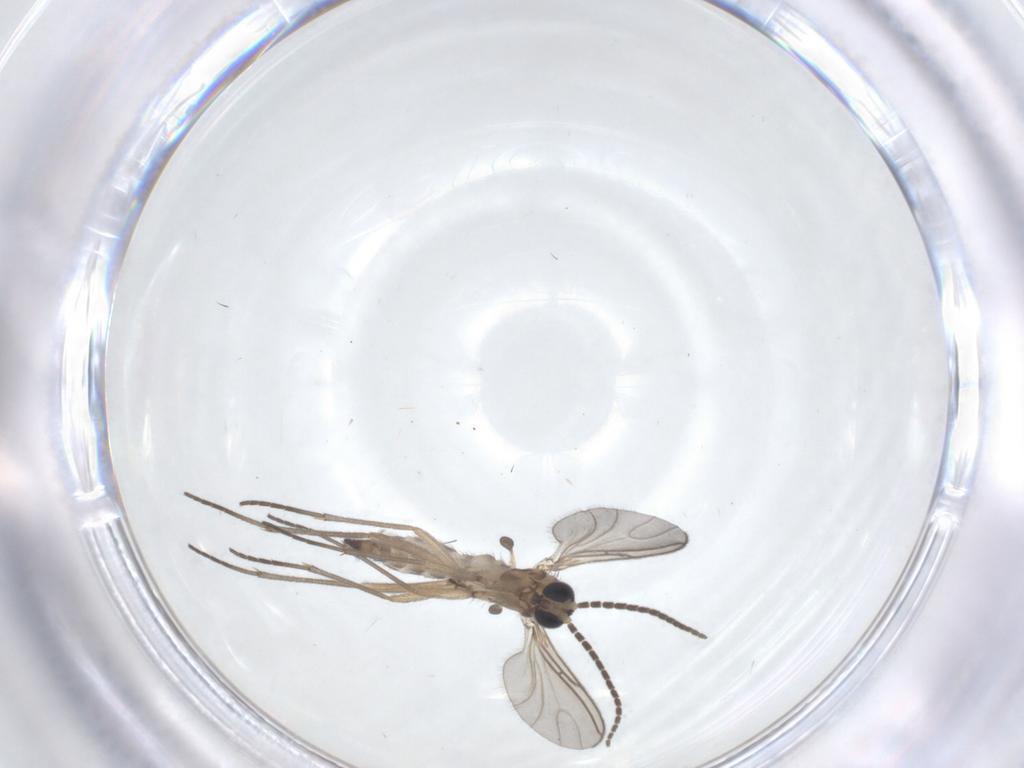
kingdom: Animalia
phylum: Arthropoda
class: Insecta
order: Diptera
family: Sciaridae
